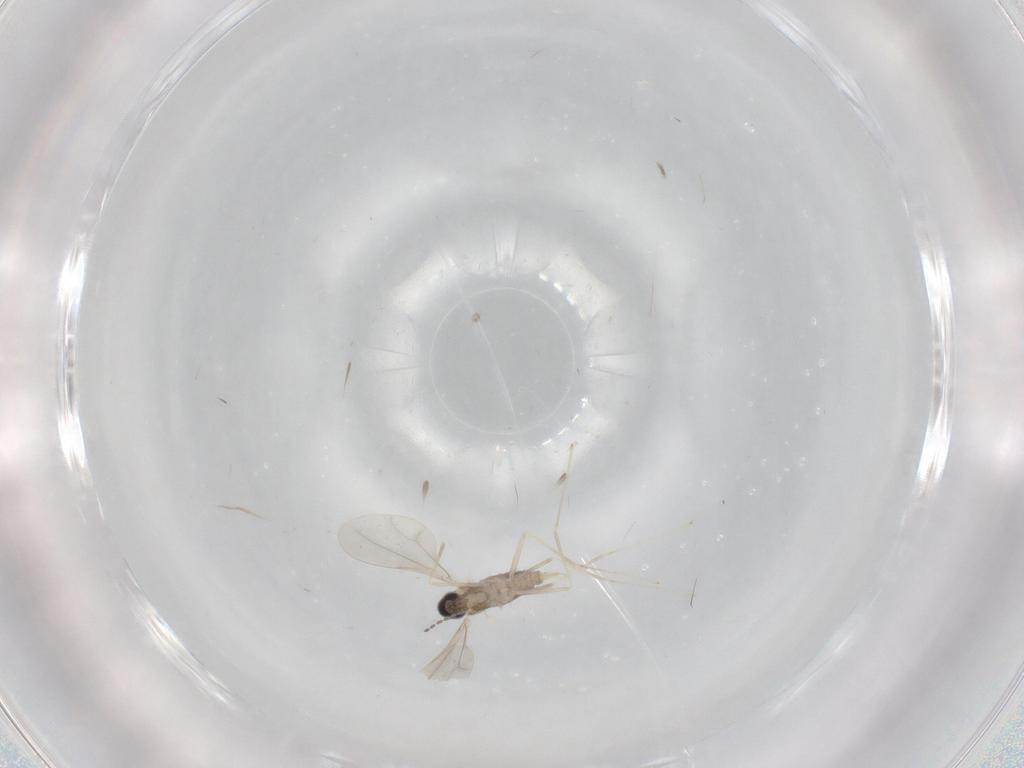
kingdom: Animalia
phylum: Arthropoda
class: Insecta
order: Diptera
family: Cecidomyiidae
